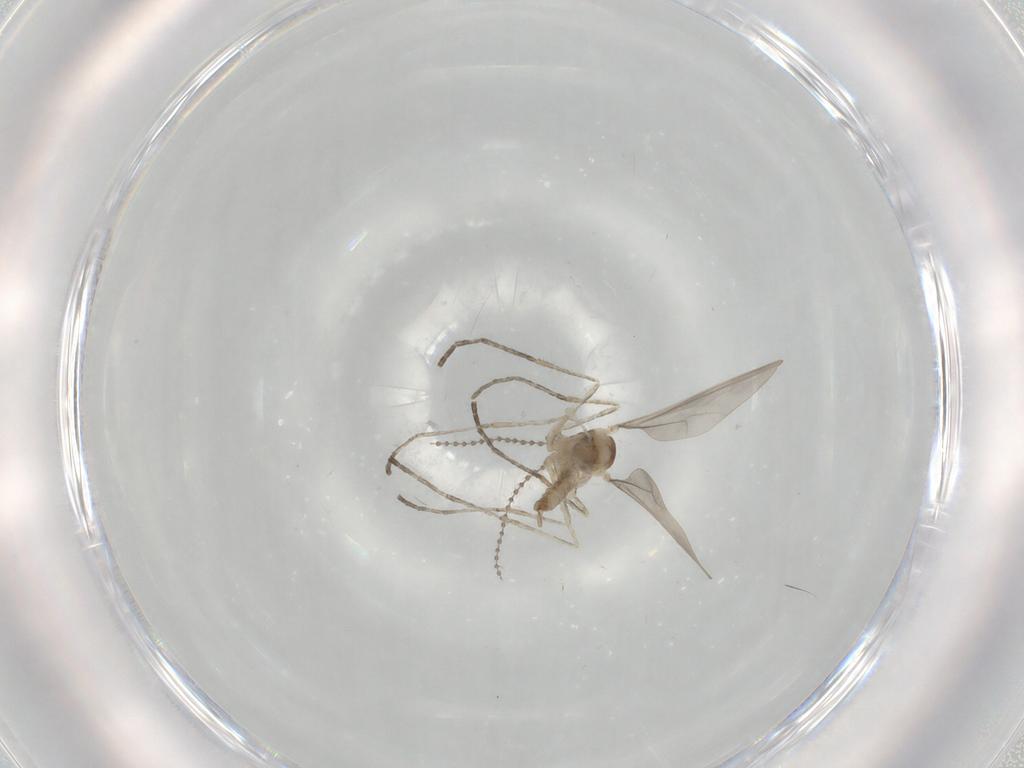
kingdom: Animalia
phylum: Arthropoda
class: Insecta
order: Diptera
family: Cecidomyiidae
